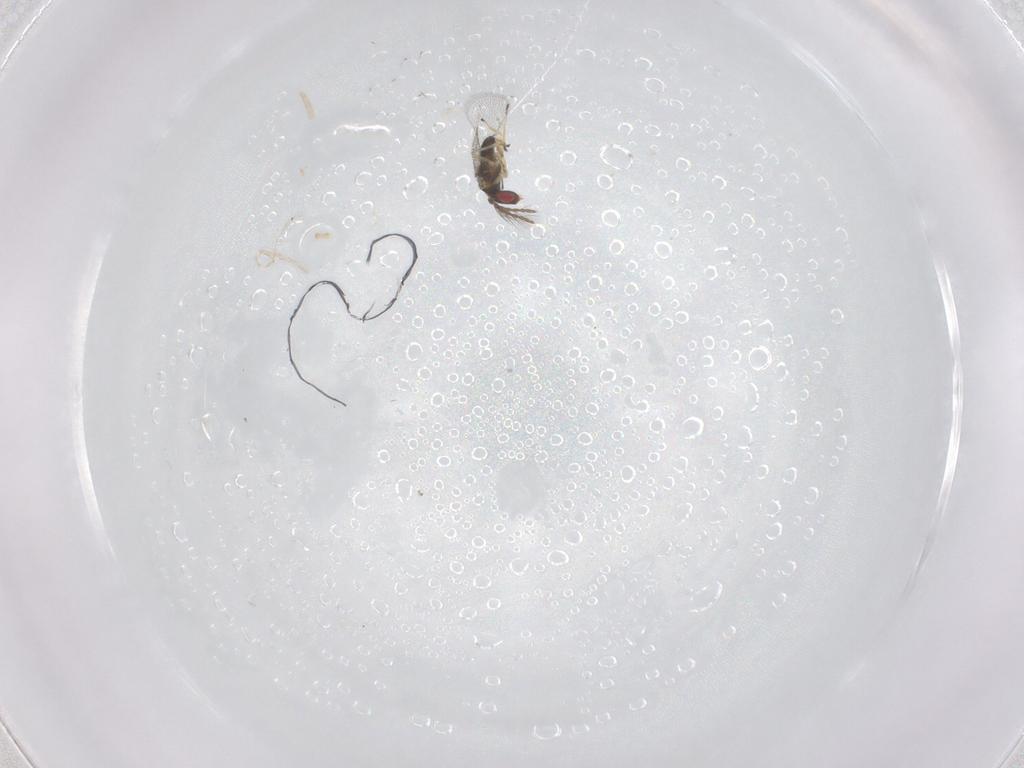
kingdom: Animalia
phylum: Arthropoda
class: Insecta
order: Hymenoptera
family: Eulophidae
